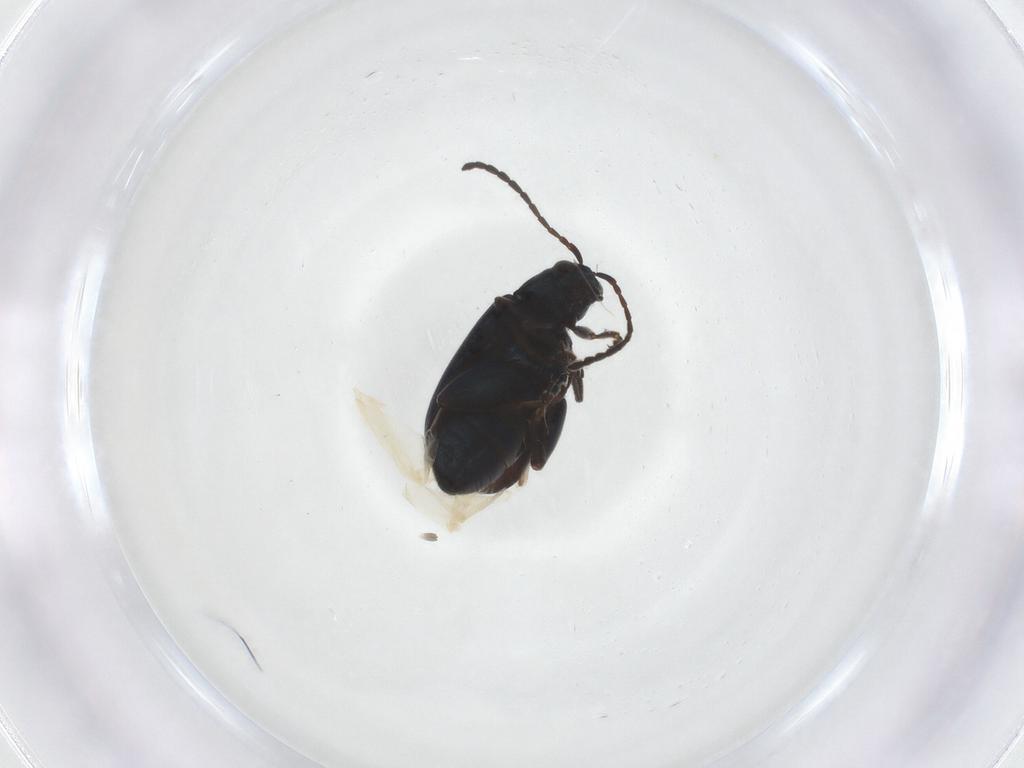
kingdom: Animalia
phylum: Arthropoda
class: Insecta
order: Coleoptera
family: Chrysomelidae
